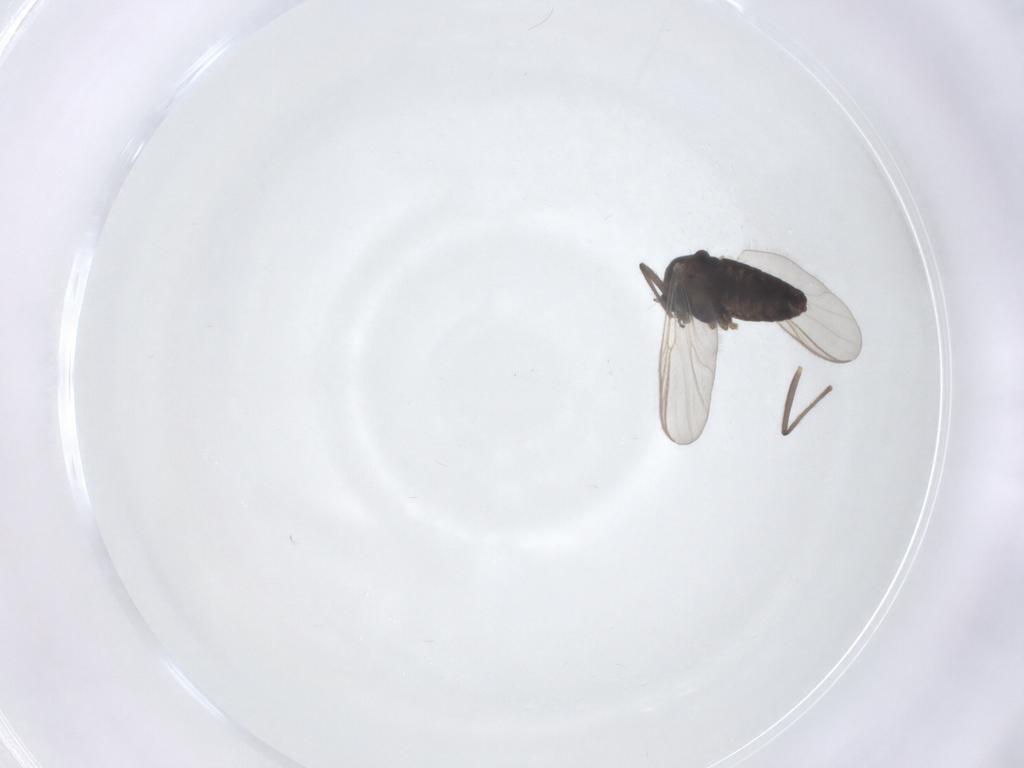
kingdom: Animalia
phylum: Arthropoda
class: Insecta
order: Diptera
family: Chironomidae
